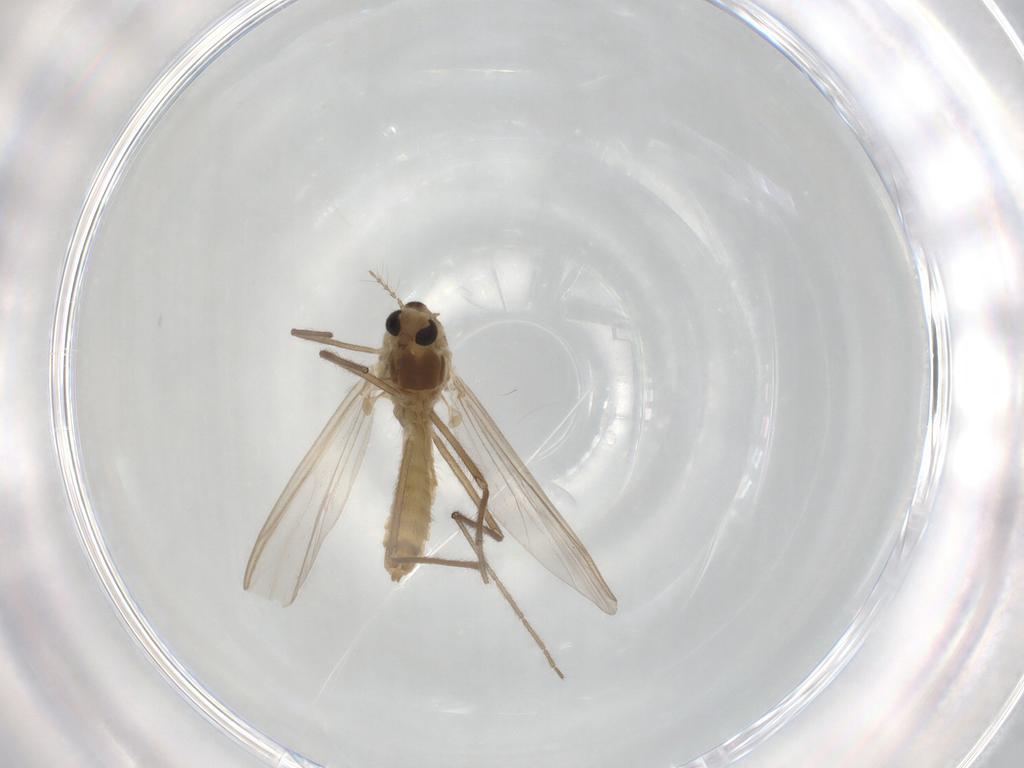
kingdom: Animalia
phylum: Arthropoda
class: Insecta
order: Diptera
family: Chironomidae
